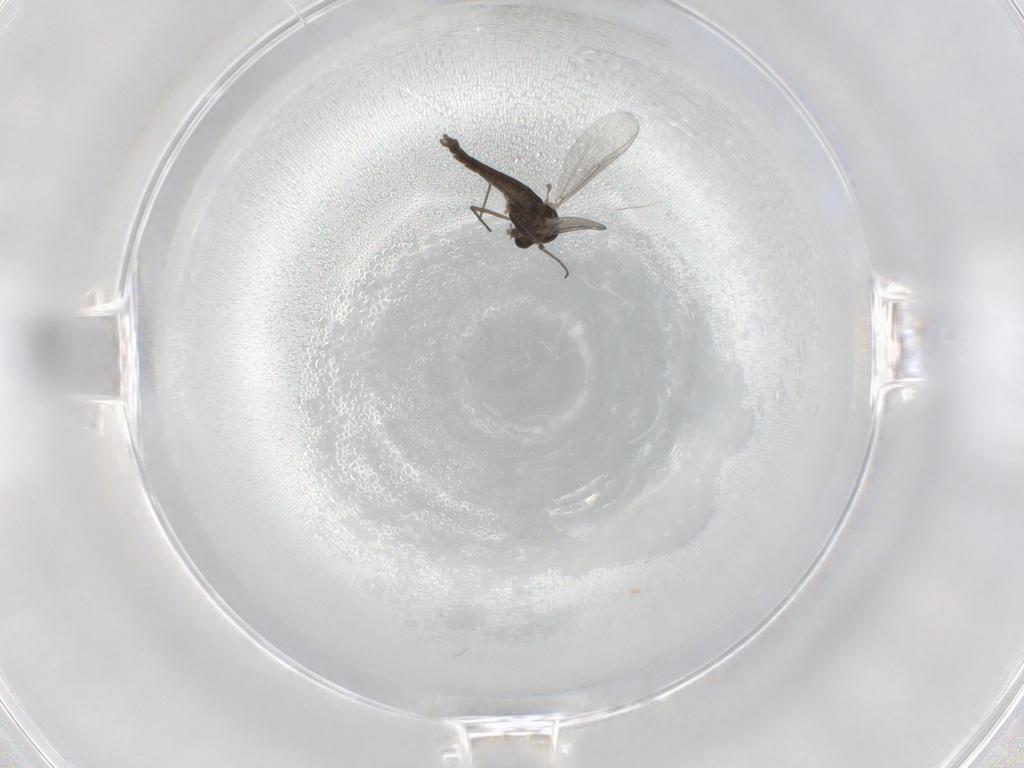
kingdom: Animalia
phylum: Arthropoda
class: Insecta
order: Diptera
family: Chironomidae
